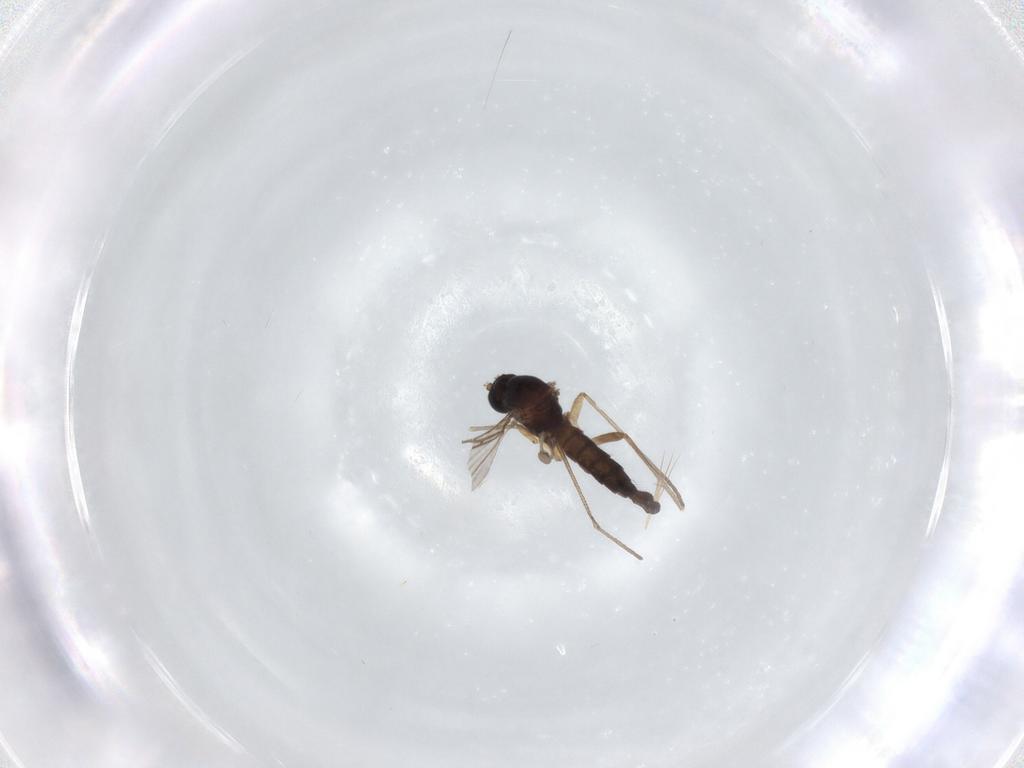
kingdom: Animalia
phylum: Arthropoda
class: Insecta
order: Diptera
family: Sciaridae
